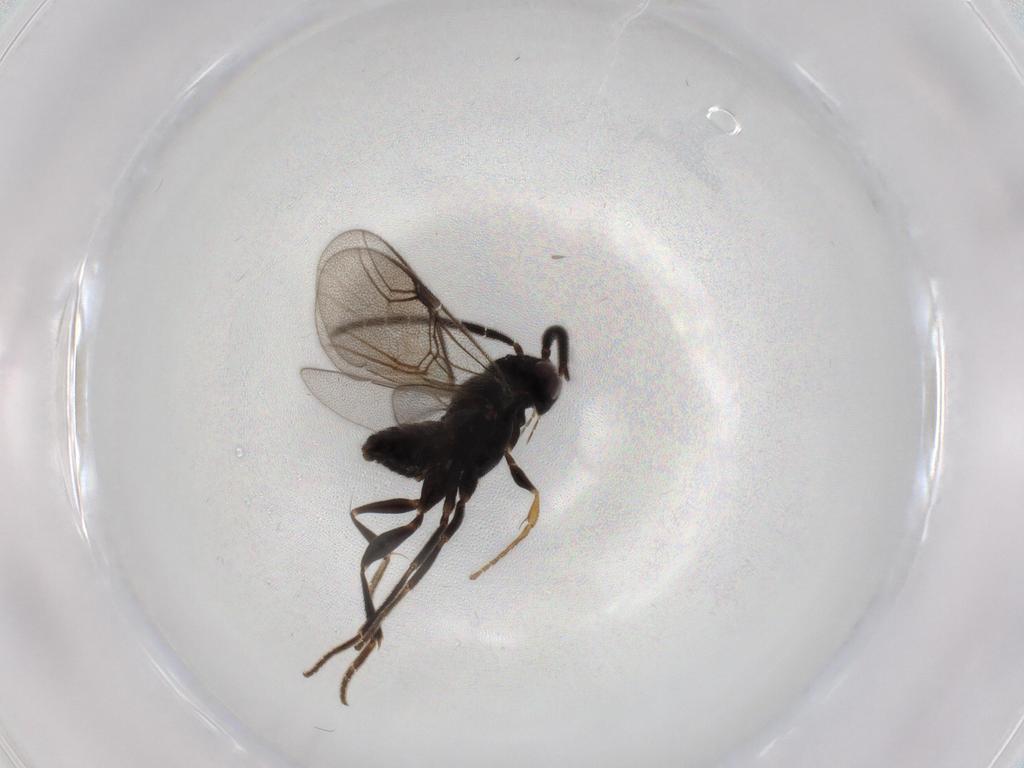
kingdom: Animalia
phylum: Arthropoda
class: Insecta
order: Hymenoptera
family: Dryinidae
